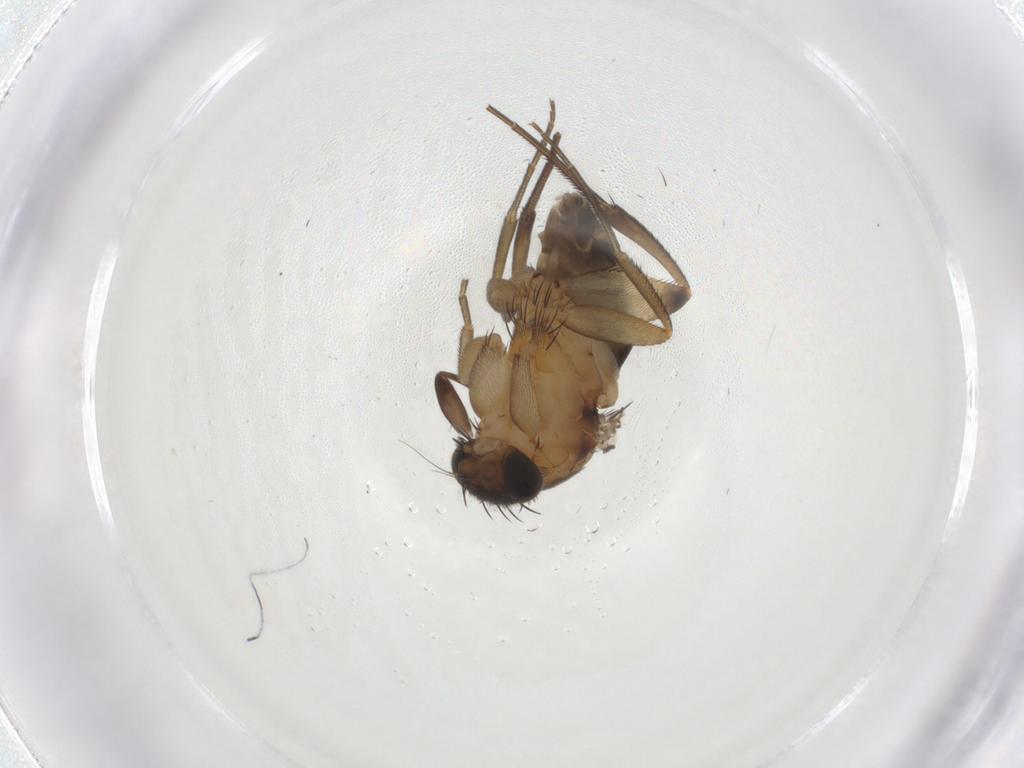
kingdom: Animalia
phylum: Arthropoda
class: Insecta
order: Diptera
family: Phoridae
